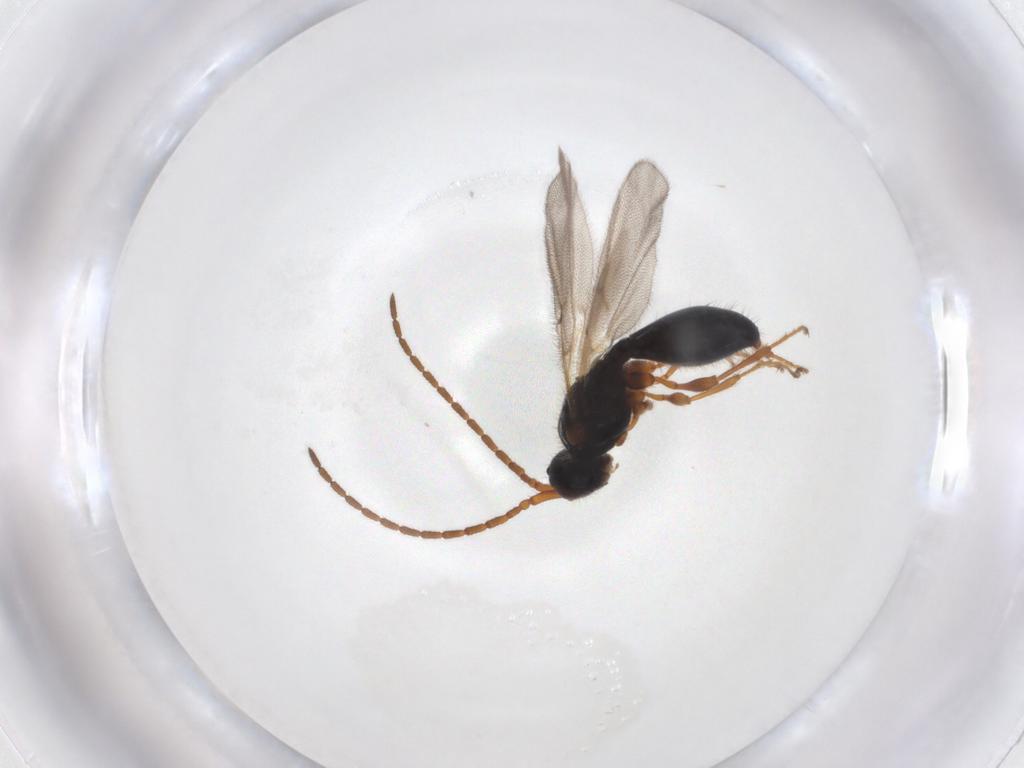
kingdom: Animalia
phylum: Arthropoda
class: Insecta
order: Hymenoptera
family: Diapriidae
